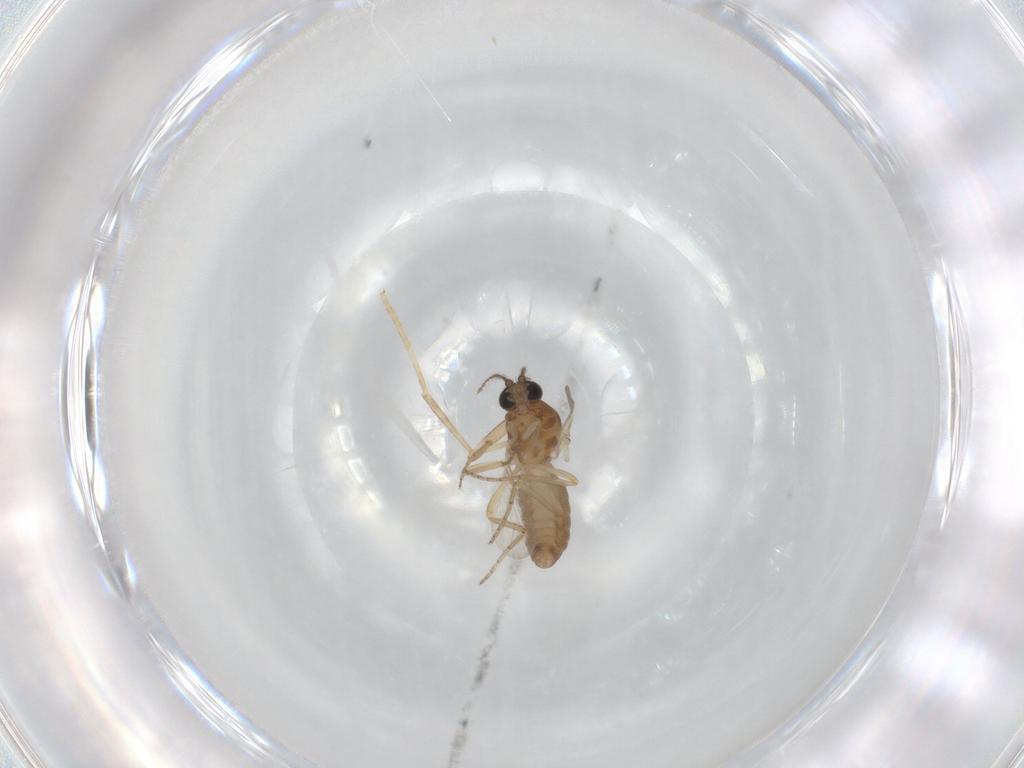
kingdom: Animalia
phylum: Arthropoda
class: Insecta
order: Diptera
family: Ceratopogonidae
